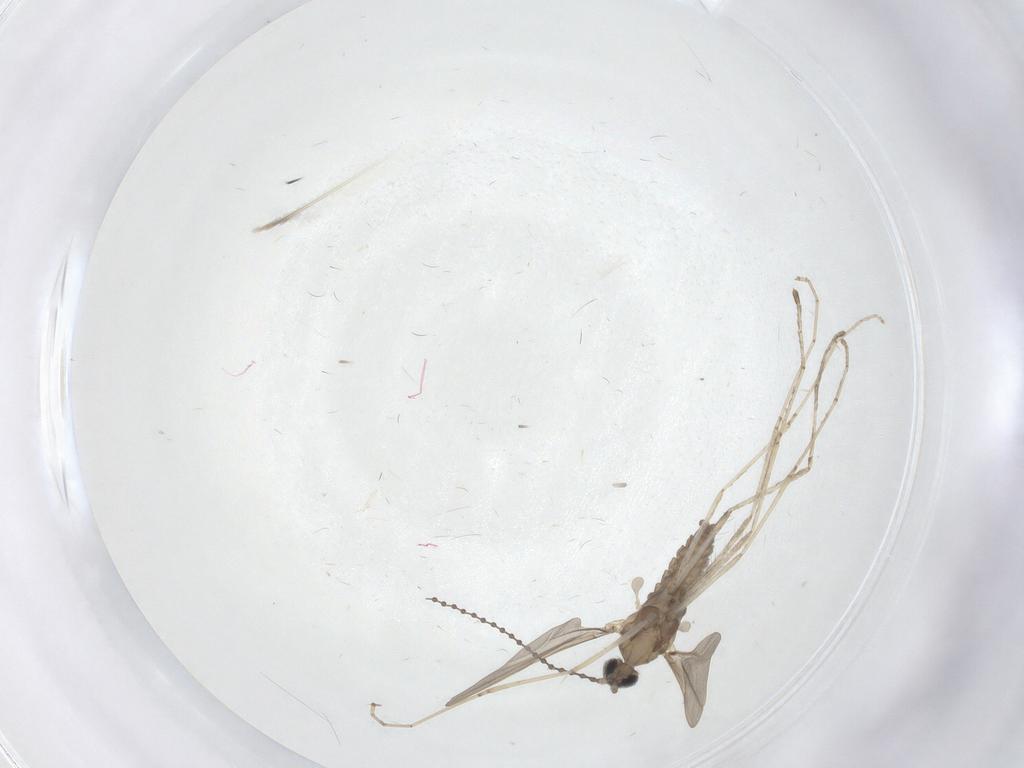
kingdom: Animalia
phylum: Arthropoda
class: Insecta
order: Diptera
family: Cecidomyiidae
